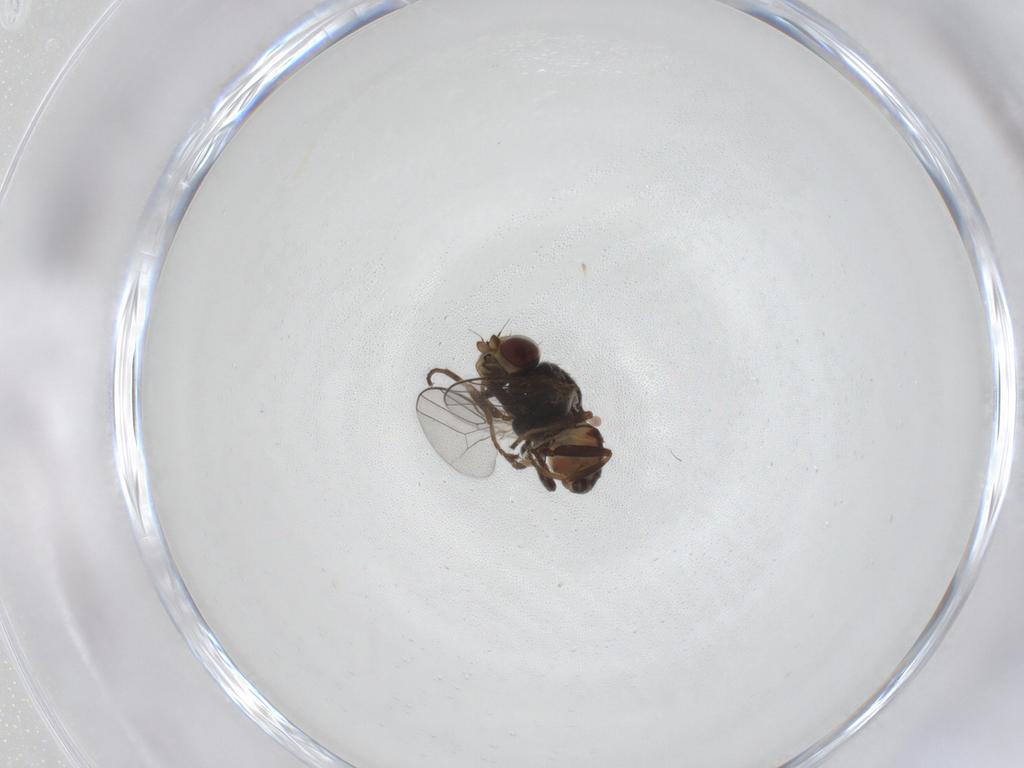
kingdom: Animalia
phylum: Arthropoda
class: Insecta
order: Diptera
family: Chloropidae
